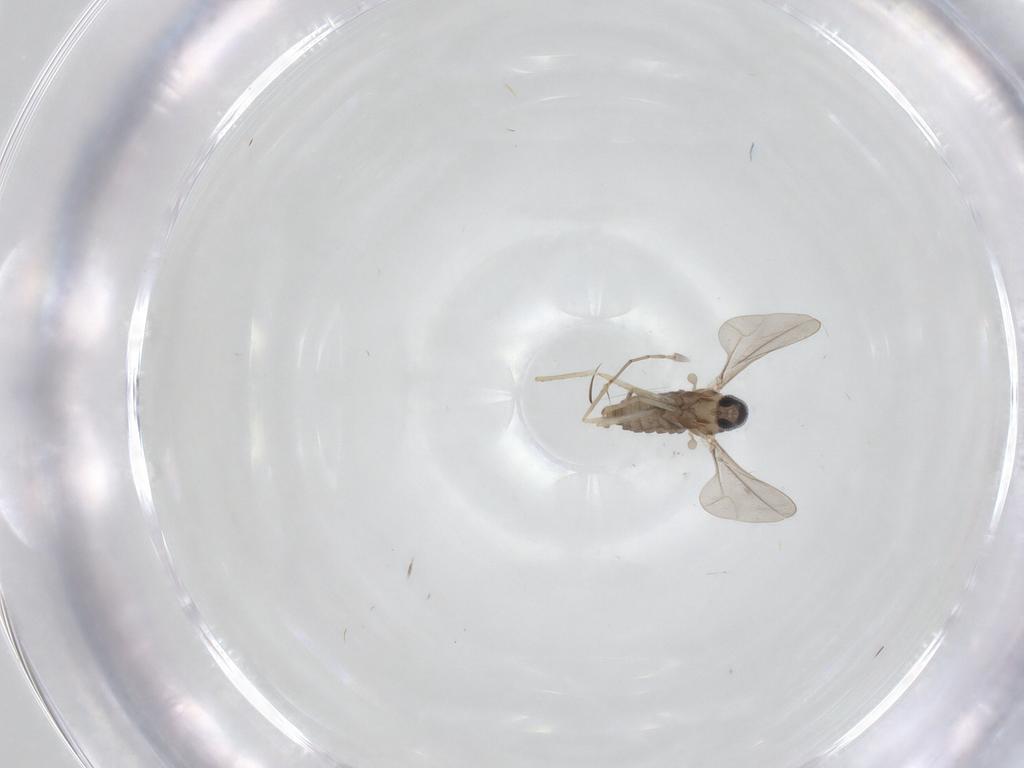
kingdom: Animalia
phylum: Arthropoda
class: Insecta
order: Diptera
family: Cecidomyiidae
